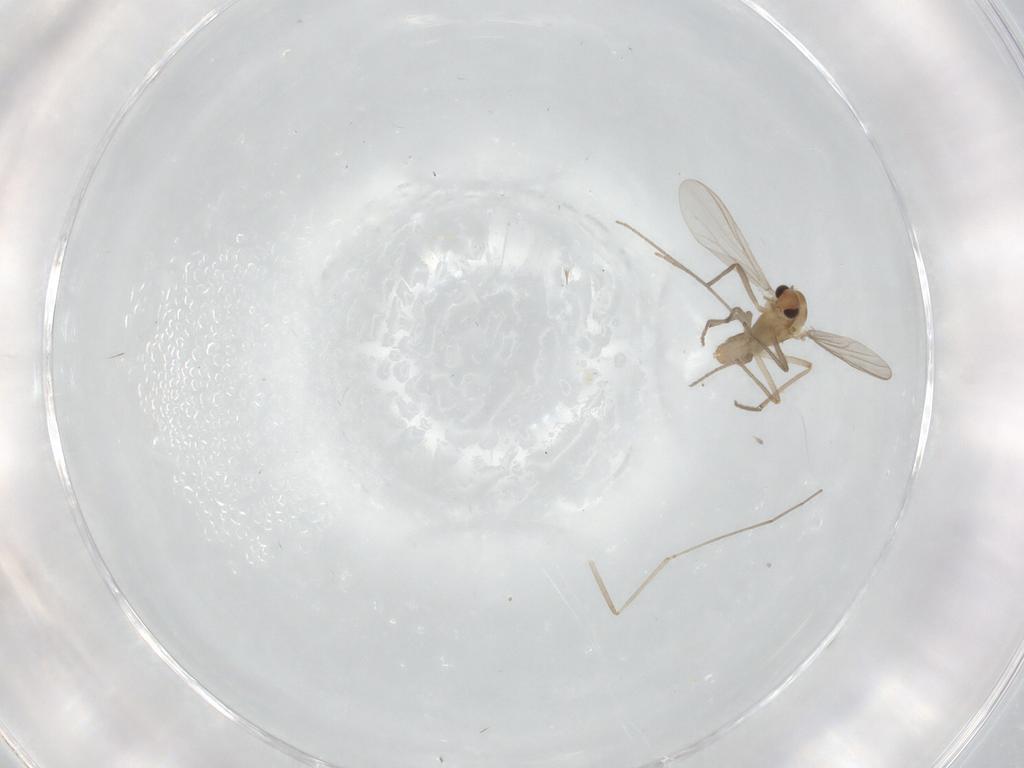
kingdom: Animalia
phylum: Arthropoda
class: Insecta
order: Diptera
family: Chironomidae
